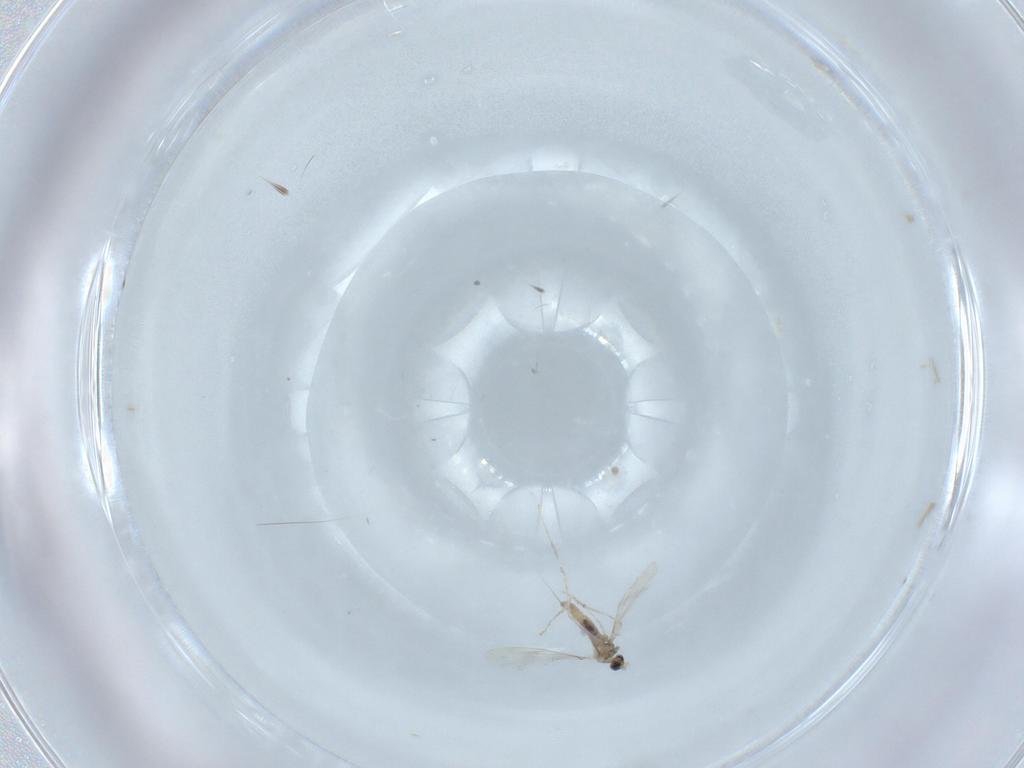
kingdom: Animalia
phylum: Arthropoda
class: Insecta
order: Diptera
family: Cecidomyiidae
